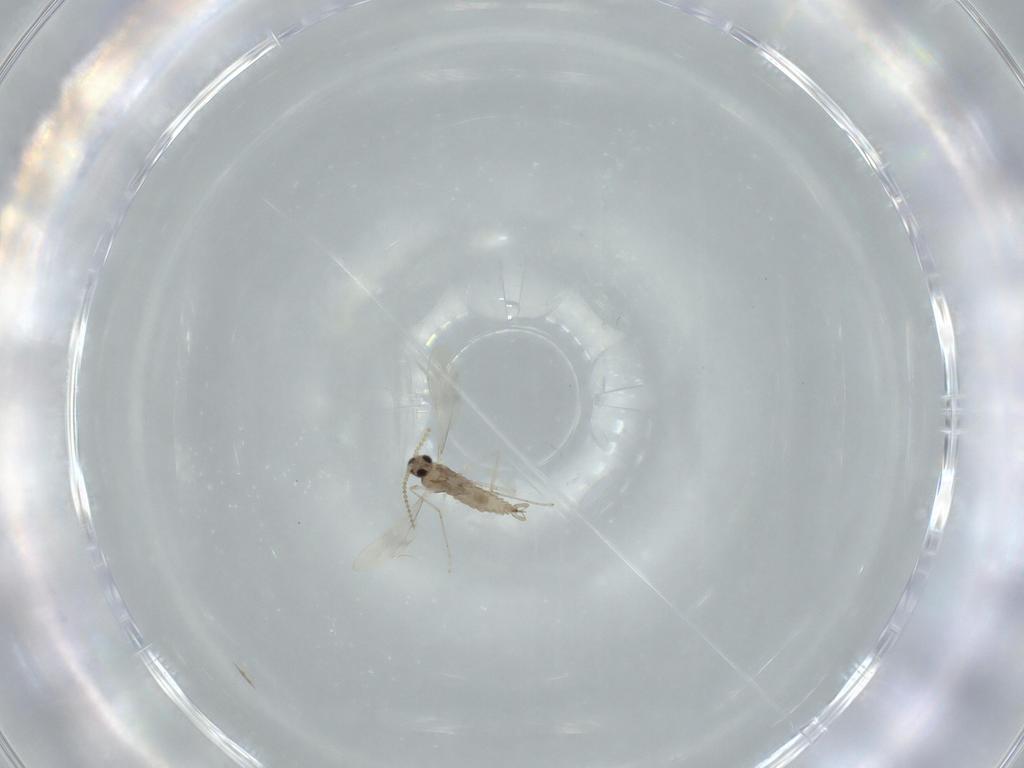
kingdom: Animalia
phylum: Arthropoda
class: Insecta
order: Diptera
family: Cecidomyiidae
